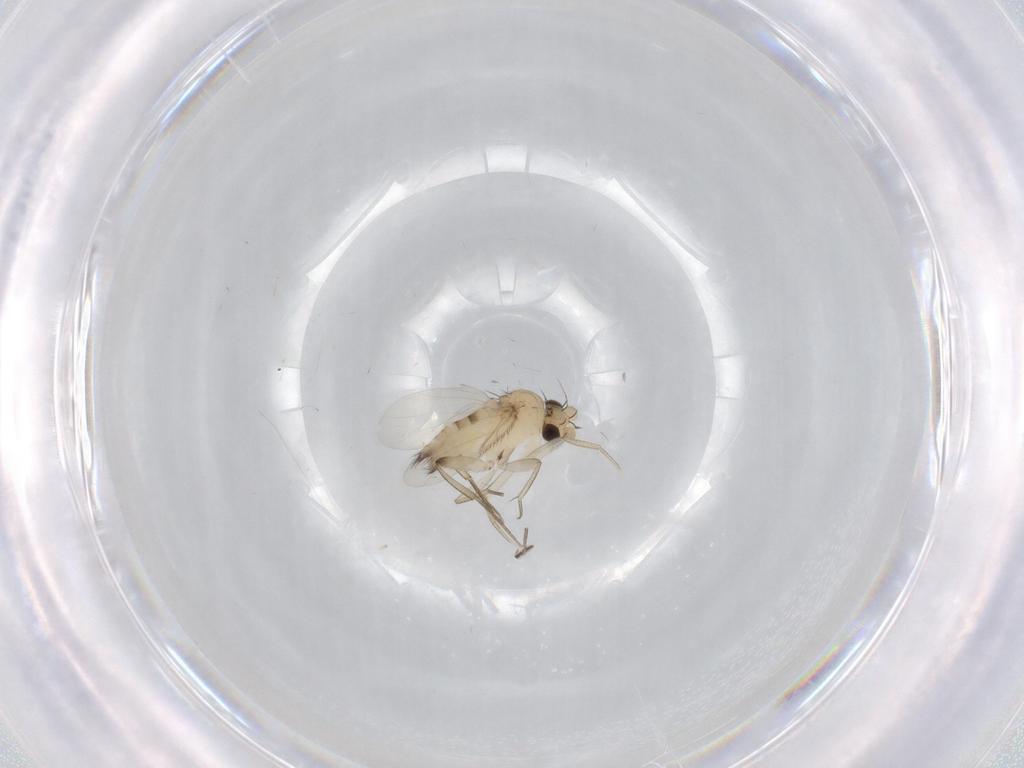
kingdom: Animalia
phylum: Arthropoda
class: Insecta
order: Diptera
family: Phoridae
